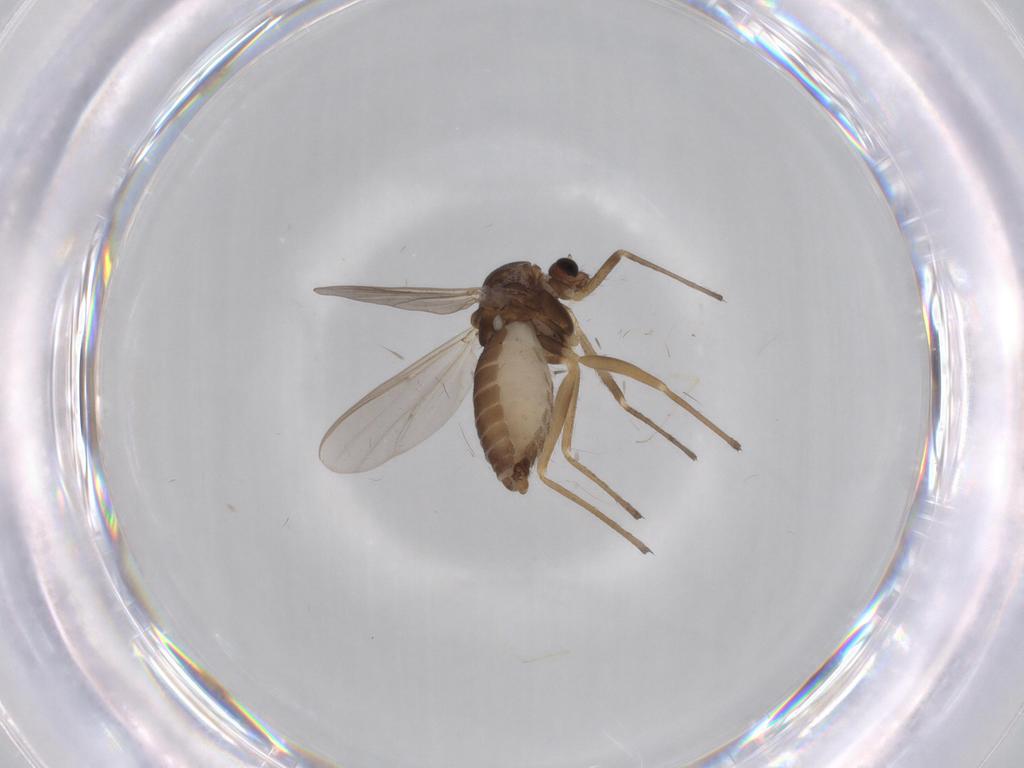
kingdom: Animalia
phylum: Arthropoda
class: Insecta
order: Diptera
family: Chironomidae
